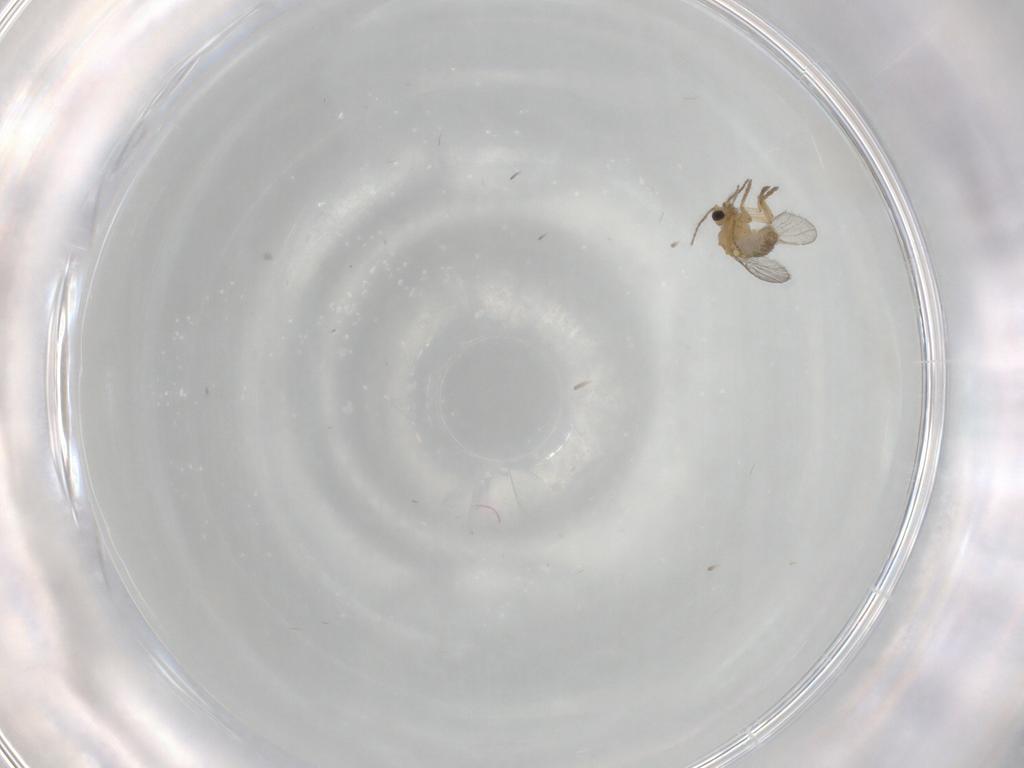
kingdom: Animalia
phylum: Arthropoda
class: Insecta
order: Diptera
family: Ceratopogonidae
